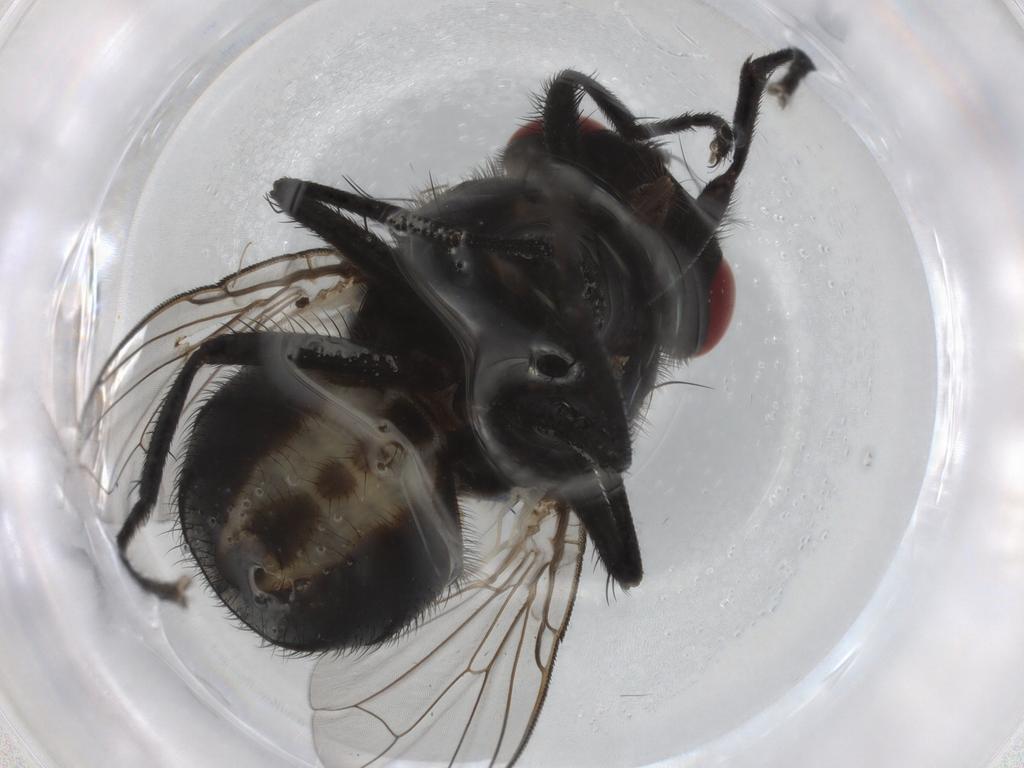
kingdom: Animalia
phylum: Arthropoda
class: Insecta
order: Diptera
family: Muscidae
